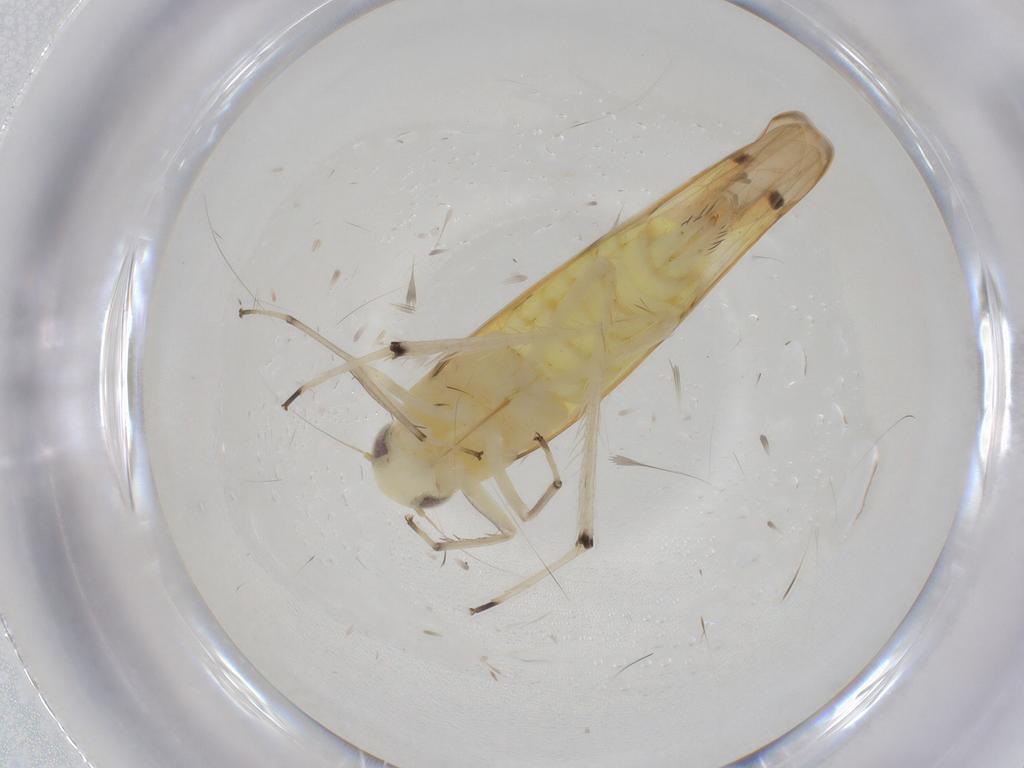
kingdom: Animalia
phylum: Arthropoda
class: Insecta
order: Hemiptera
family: Cicadellidae
